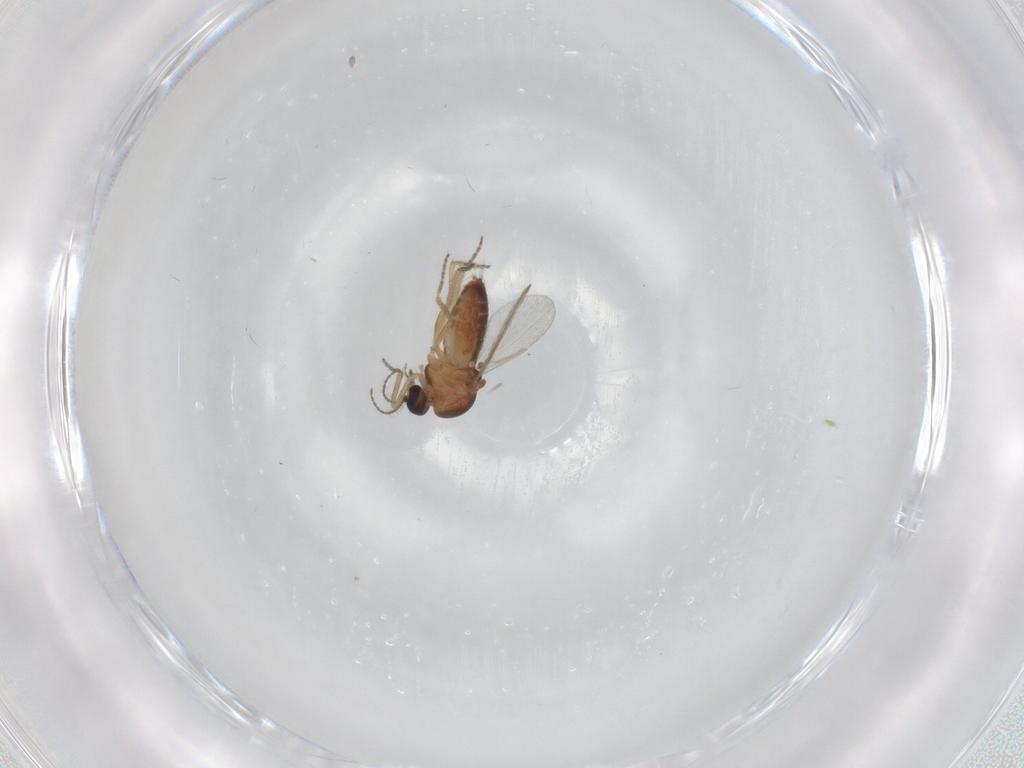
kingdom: Animalia
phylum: Arthropoda
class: Insecta
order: Diptera
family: Ceratopogonidae
